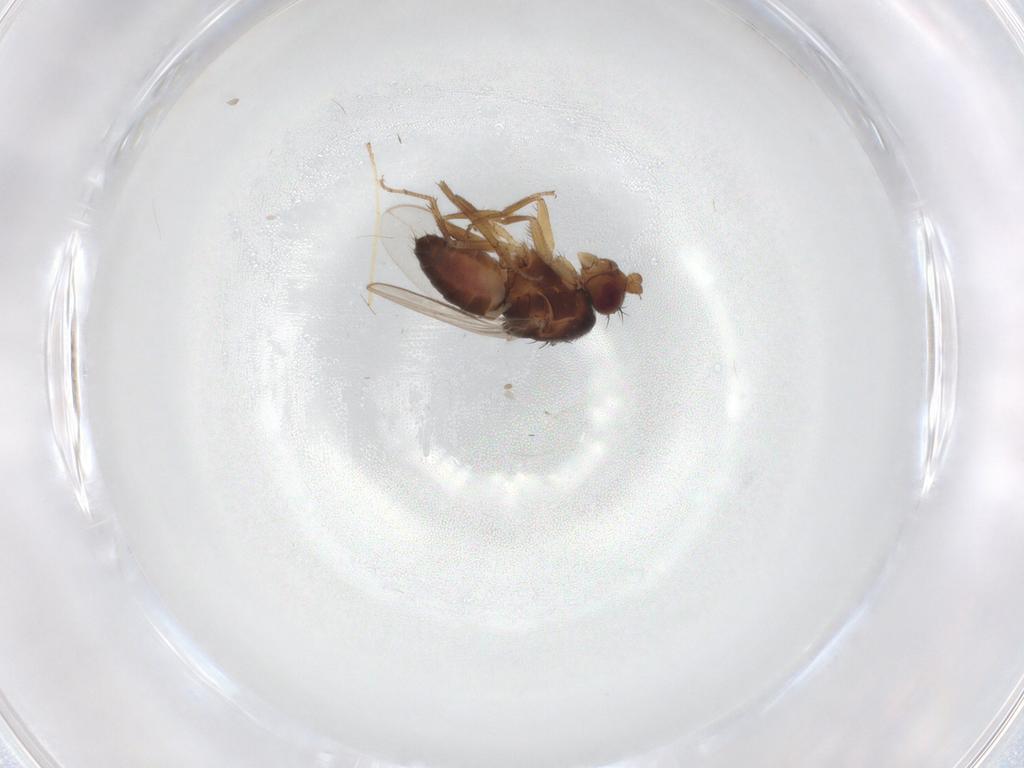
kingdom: Animalia
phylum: Arthropoda
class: Insecta
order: Diptera
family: Sphaeroceridae
